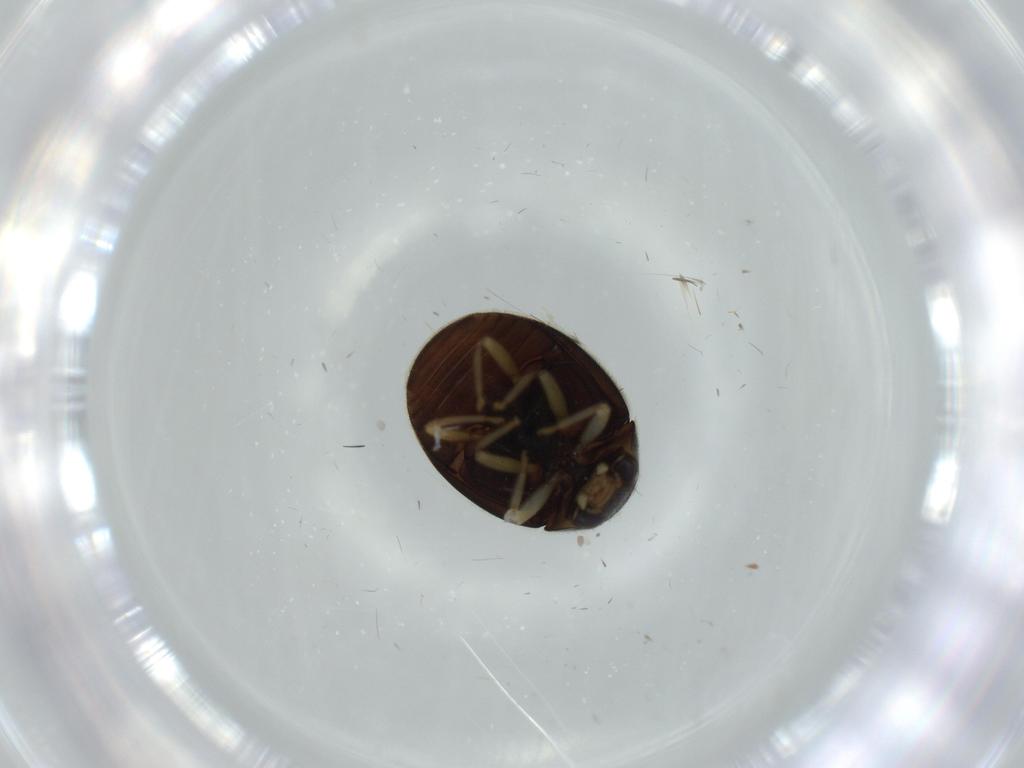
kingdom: Animalia
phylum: Arthropoda
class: Insecta
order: Coleoptera
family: Coccinellidae
